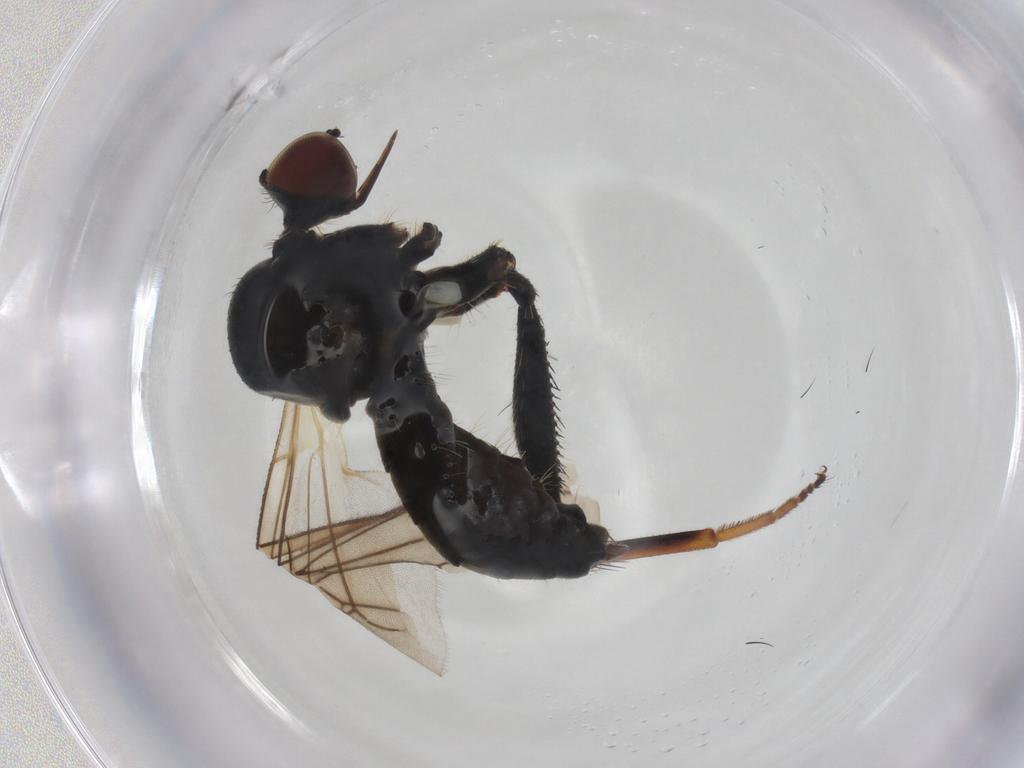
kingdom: Animalia
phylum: Arthropoda
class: Insecta
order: Diptera
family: Hybotidae
